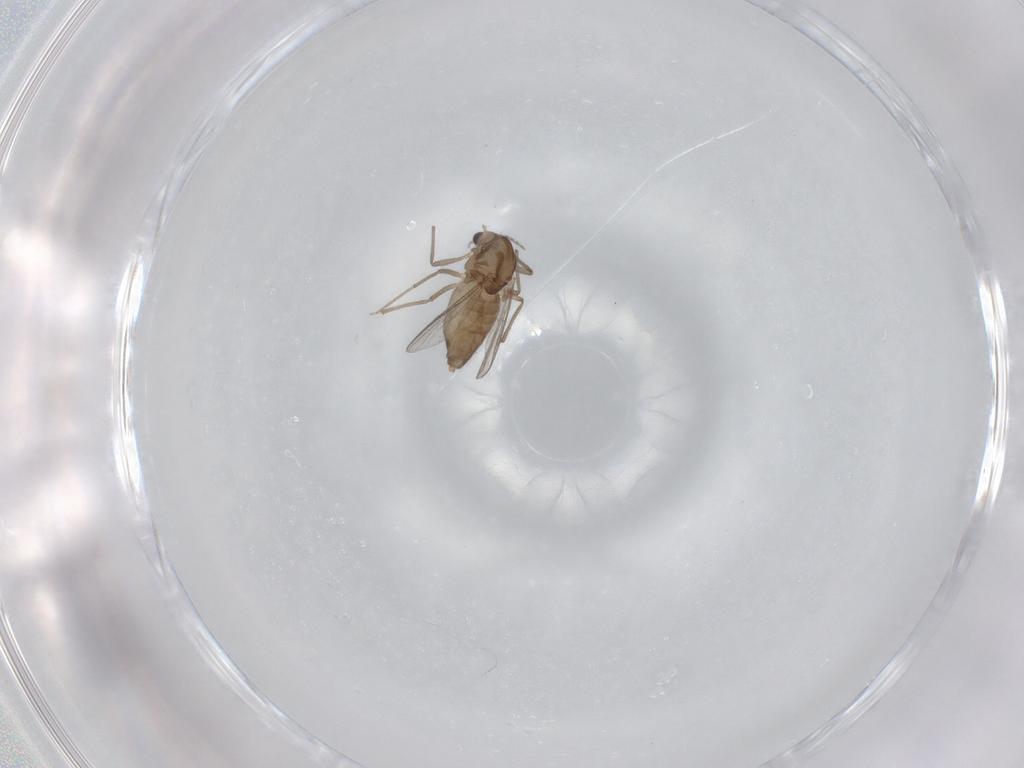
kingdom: Animalia
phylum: Arthropoda
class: Insecta
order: Diptera
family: Chironomidae
